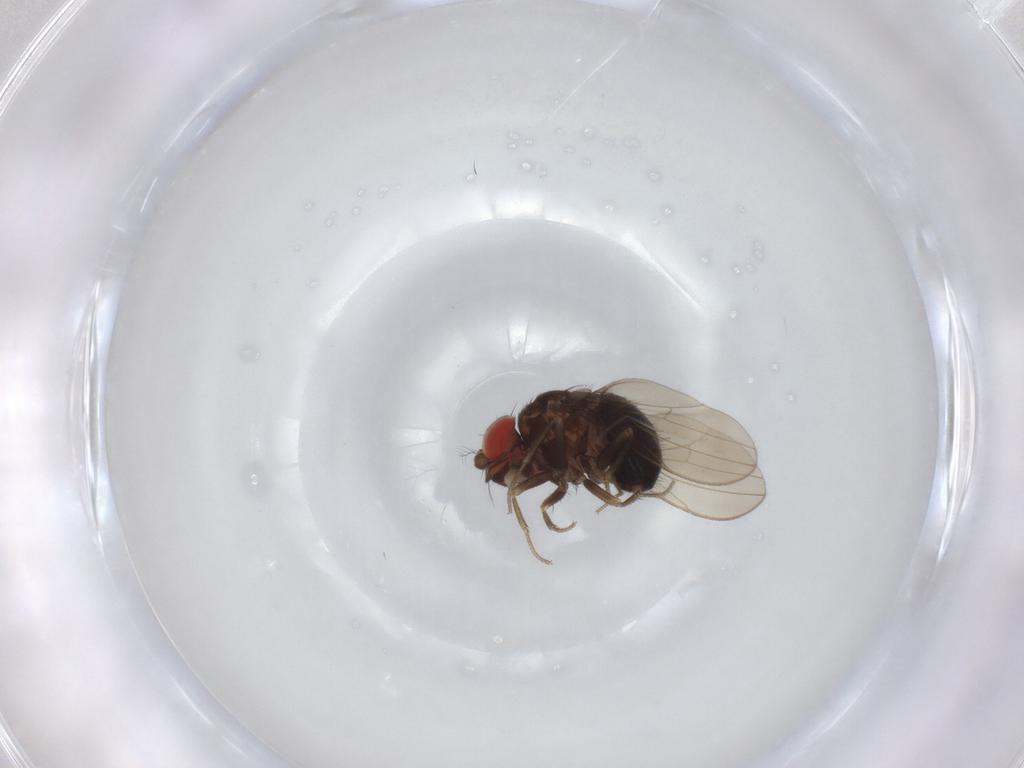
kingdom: Animalia
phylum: Arthropoda
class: Insecta
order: Diptera
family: Drosophilidae
